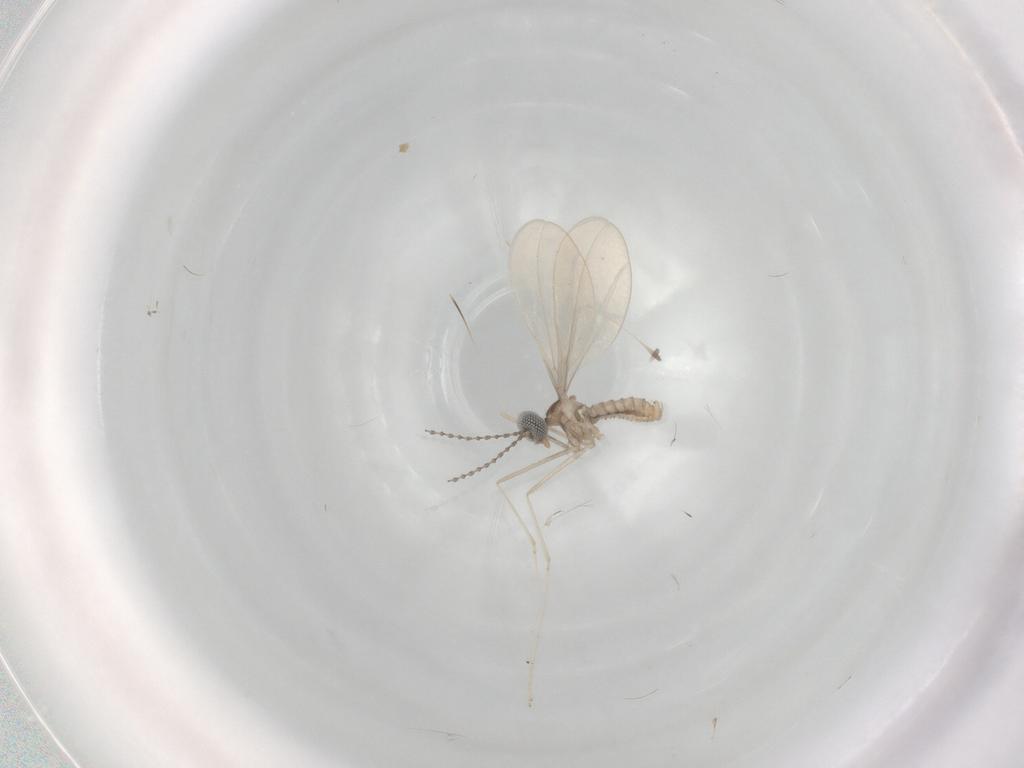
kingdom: Animalia
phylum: Arthropoda
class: Insecta
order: Diptera
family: Cecidomyiidae
